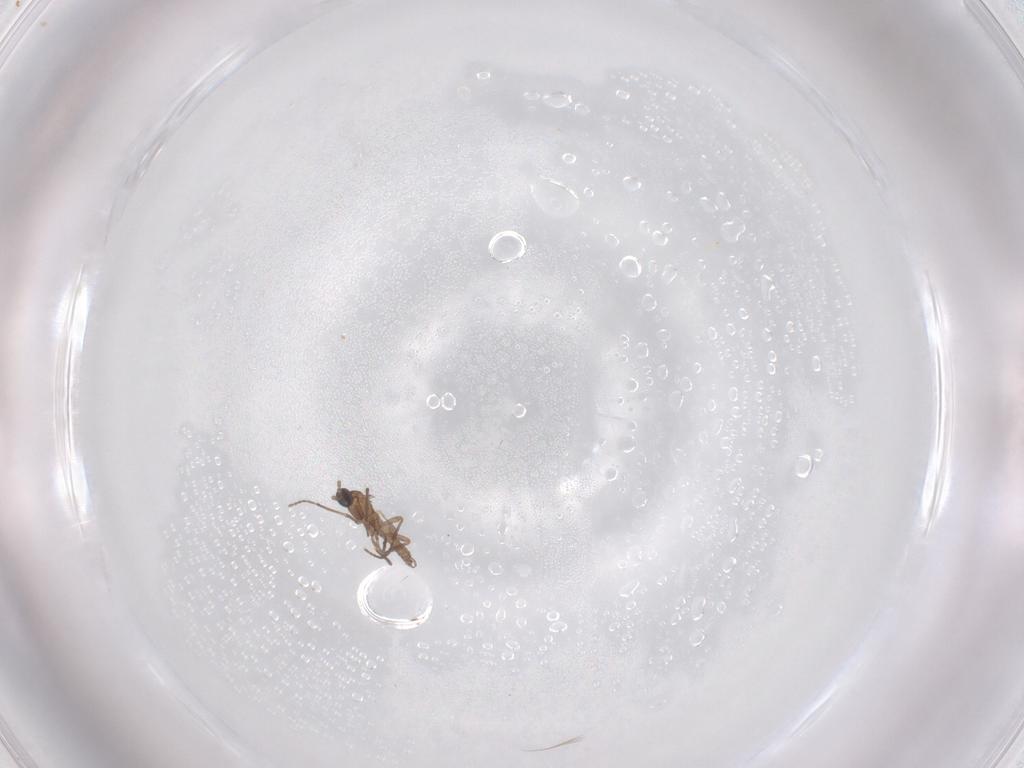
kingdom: Animalia
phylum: Arthropoda
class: Insecta
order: Diptera
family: Sciaridae
